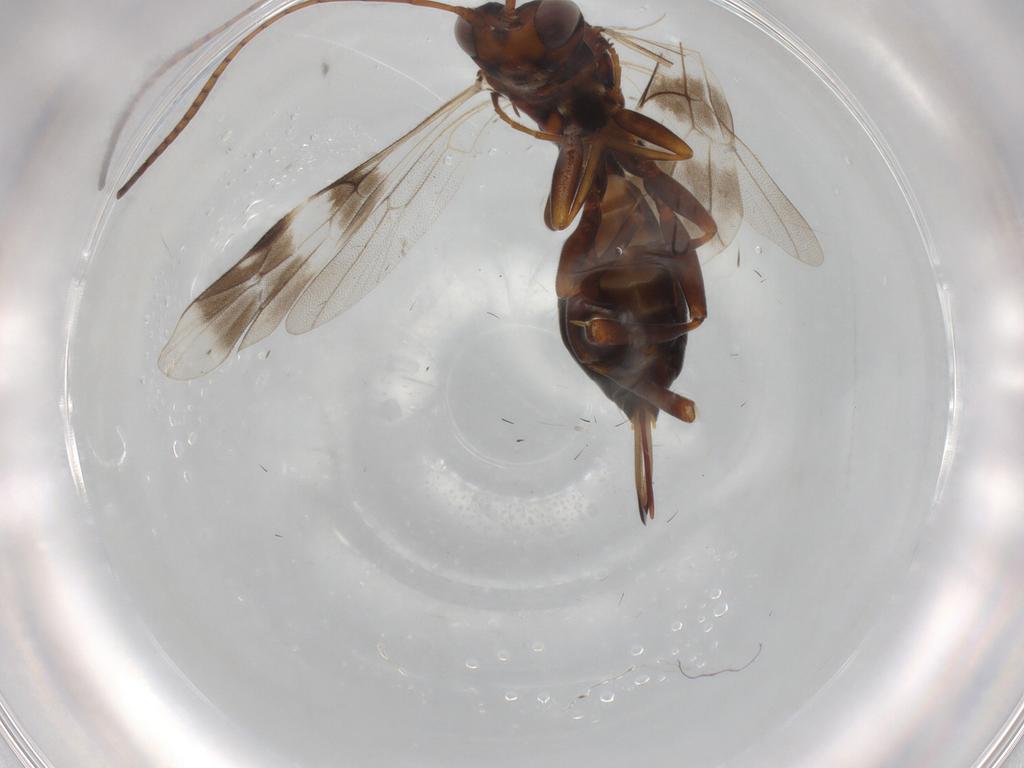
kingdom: Animalia
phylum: Arthropoda
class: Insecta
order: Hymenoptera
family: Ichneumonidae
